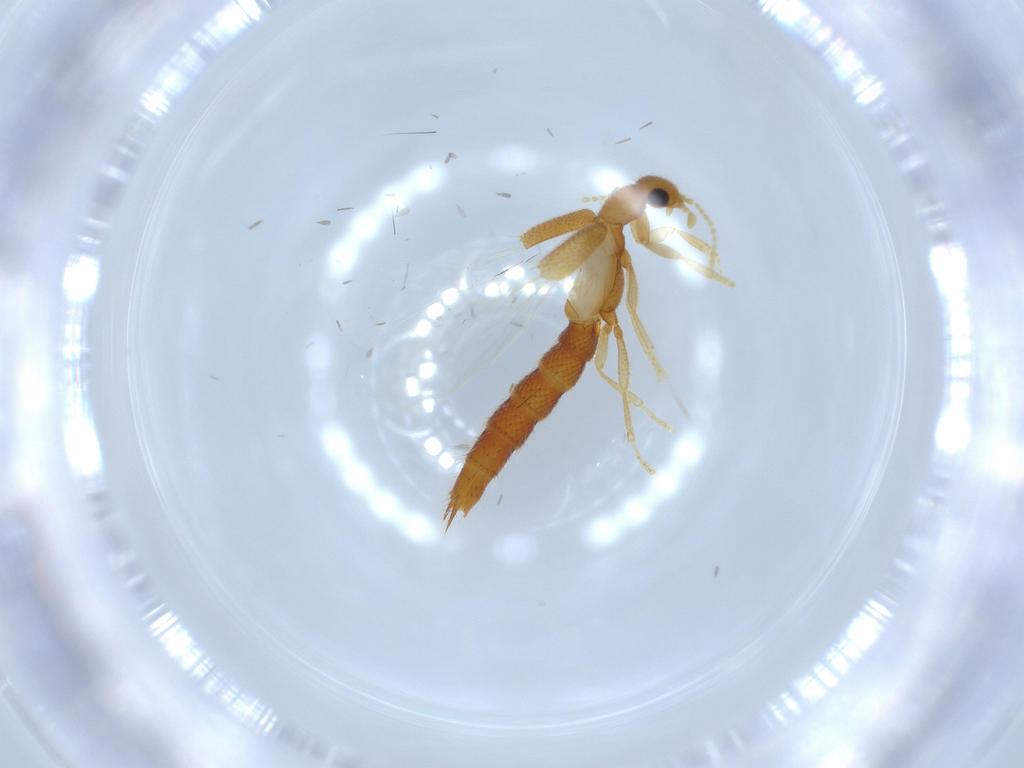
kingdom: Animalia
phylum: Arthropoda
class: Insecta
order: Coleoptera
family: Staphylinidae
